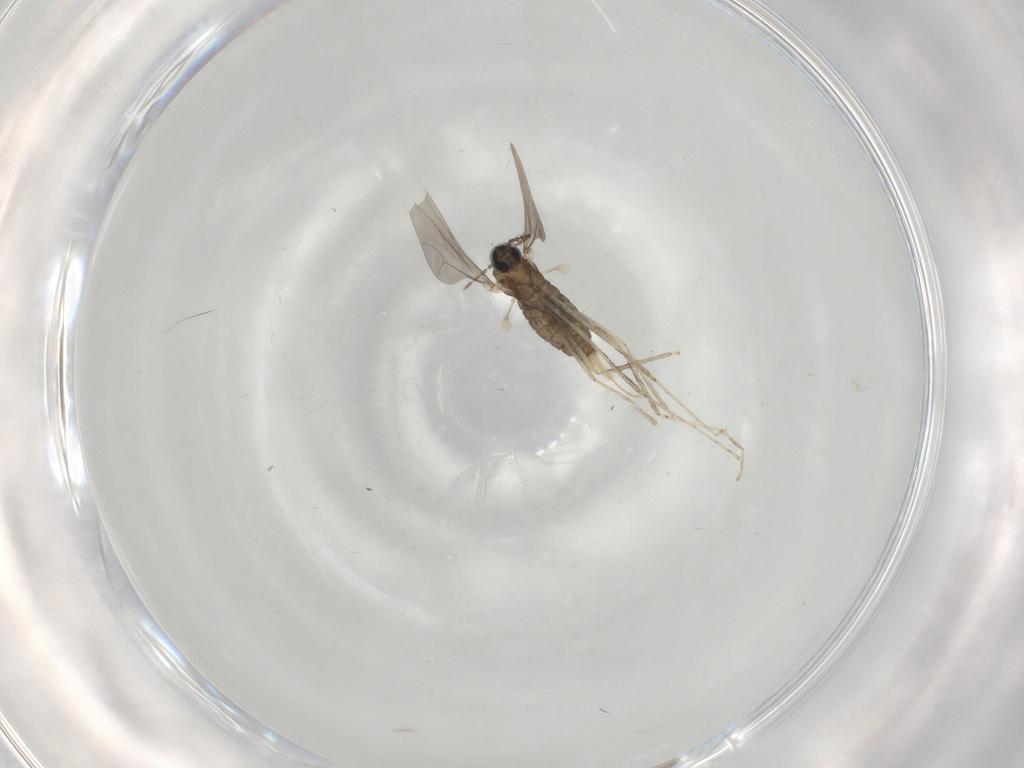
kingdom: Animalia
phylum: Arthropoda
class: Insecta
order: Diptera
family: Cecidomyiidae
